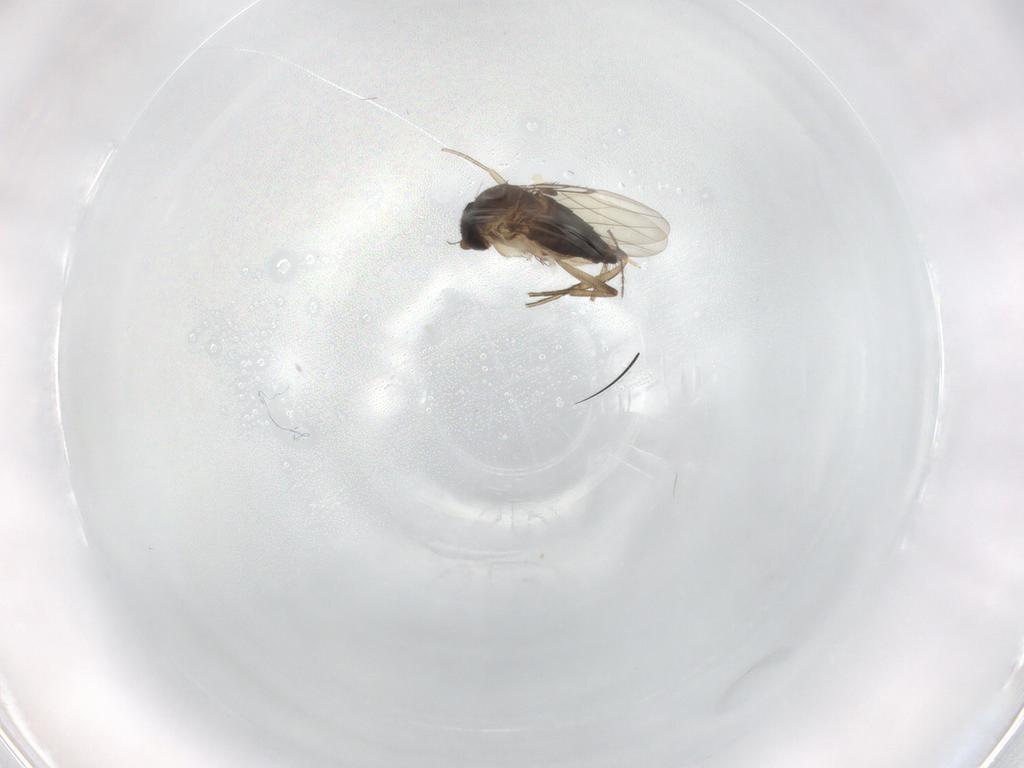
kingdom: Animalia
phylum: Arthropoda
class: Insecta
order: Diptera
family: Phoridae
